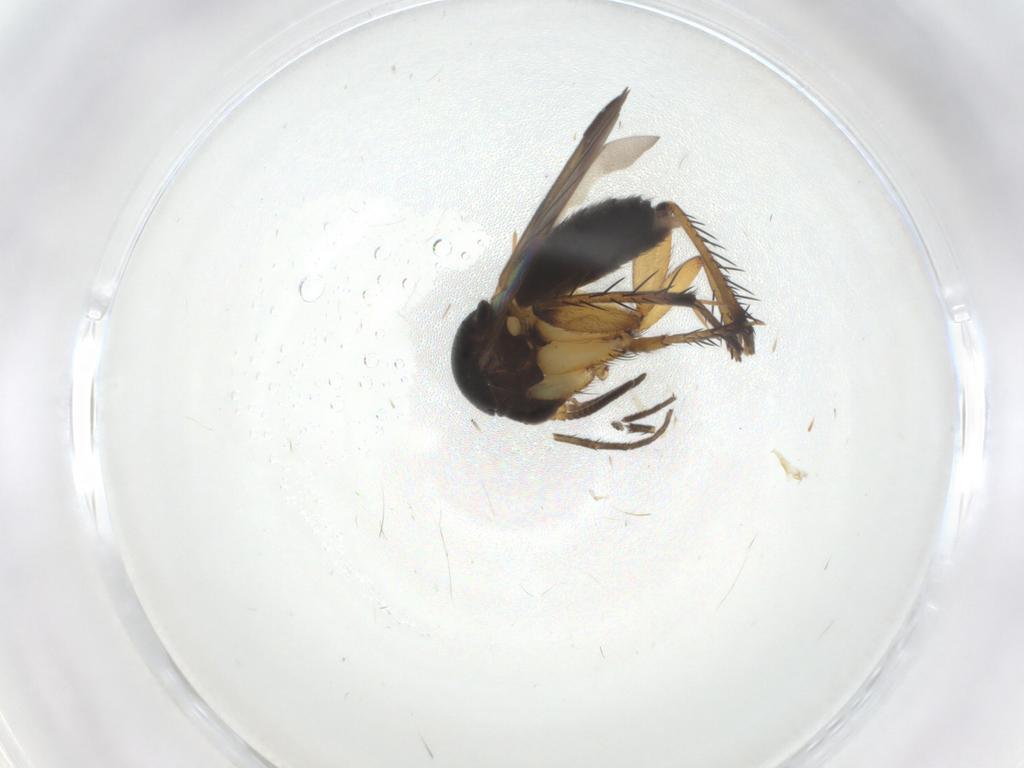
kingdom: Animalia
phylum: Arthropoda
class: Insecta
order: Diptera
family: Mycetophilidae
